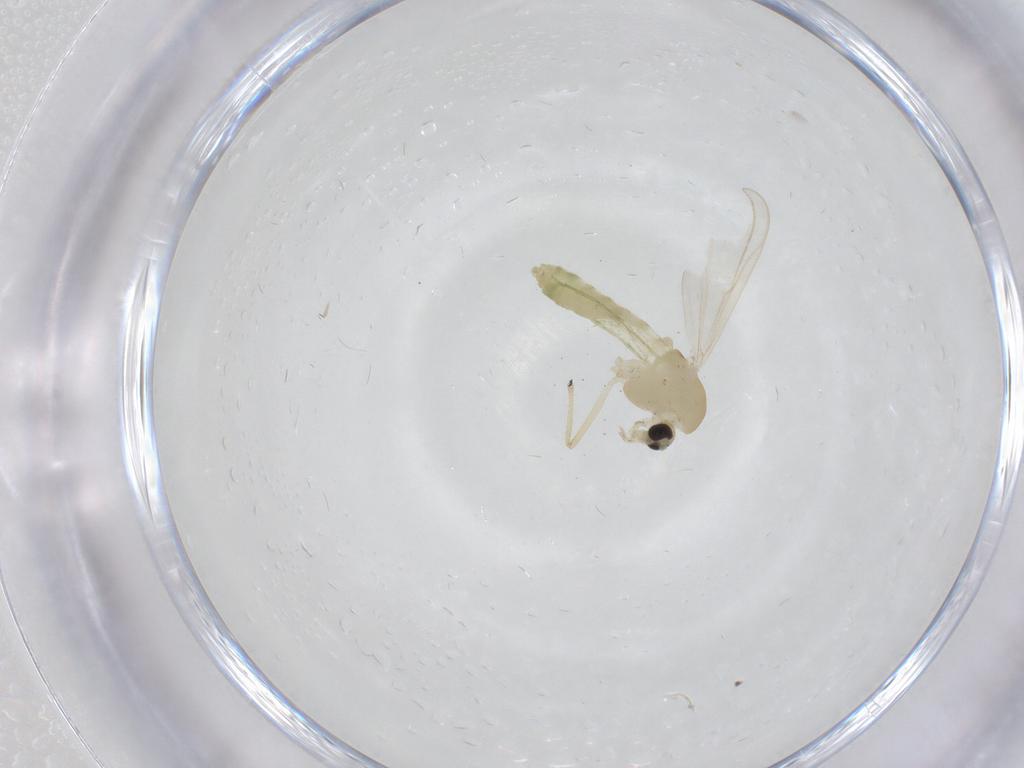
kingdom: Animalia
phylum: Arthropoda
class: Insecta
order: Diptera
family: Chironomidae
